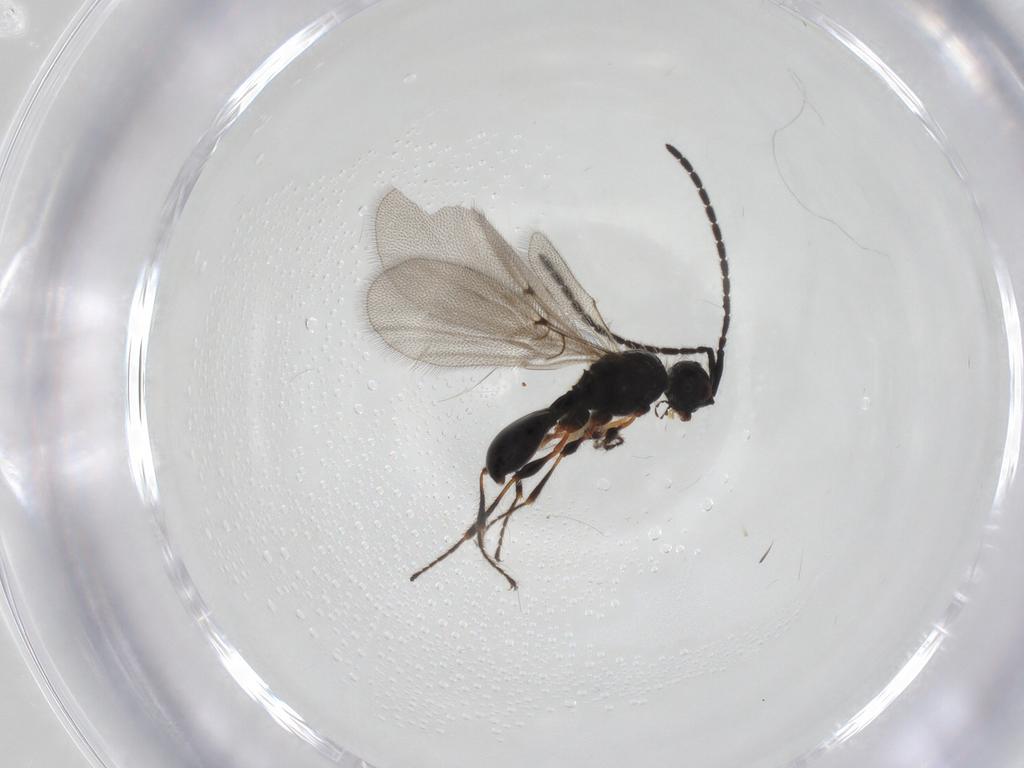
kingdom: Animalia
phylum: Arthropoda
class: Insecta
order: Hymenoptera
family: Diapriidae
